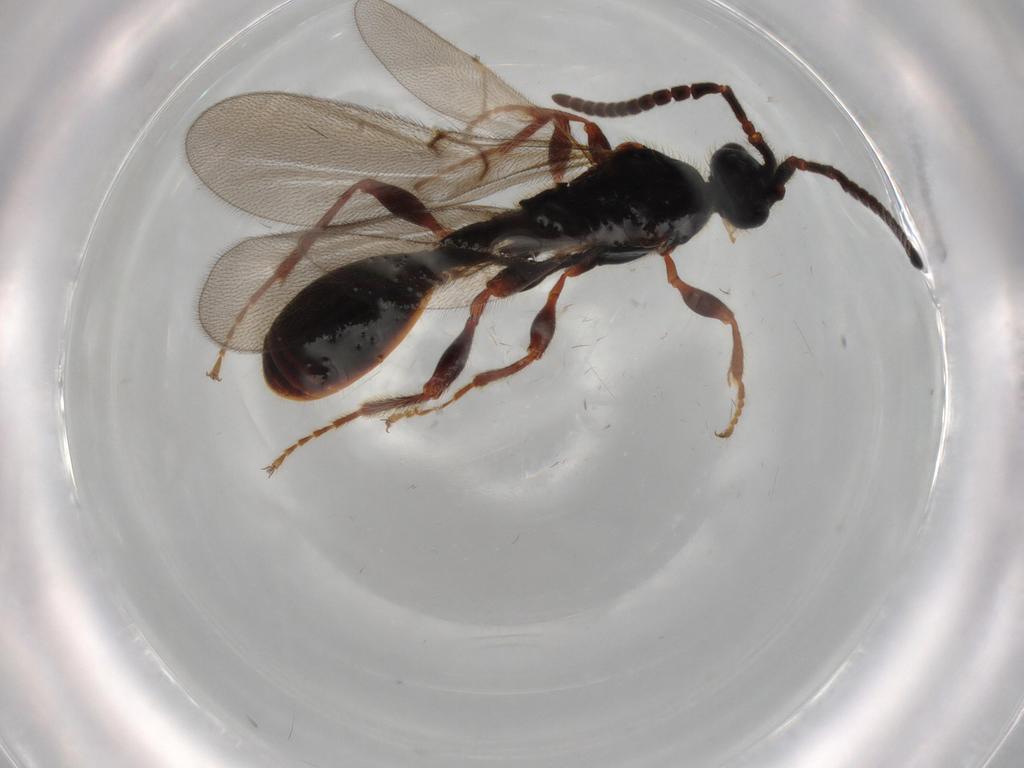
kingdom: Animalia
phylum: Arthropoda
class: Insecta
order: Hymenoptera
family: Diapriidae
